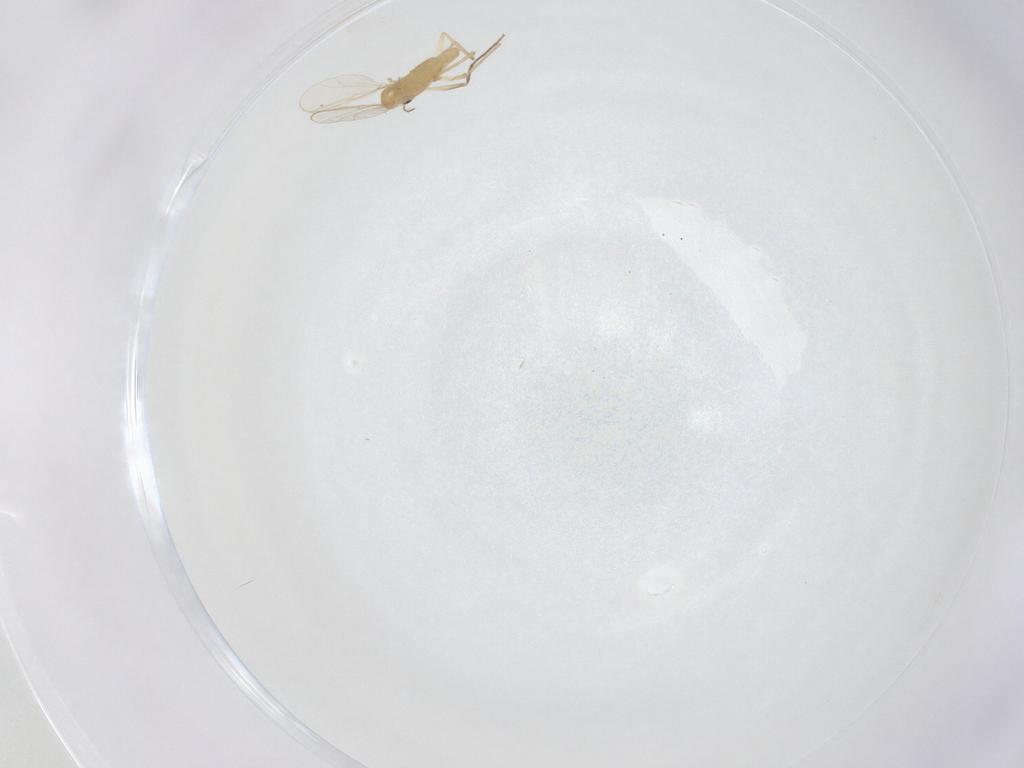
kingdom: Animalia
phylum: Arthropoda
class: Insecta
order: Diptera
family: Chironomidae
